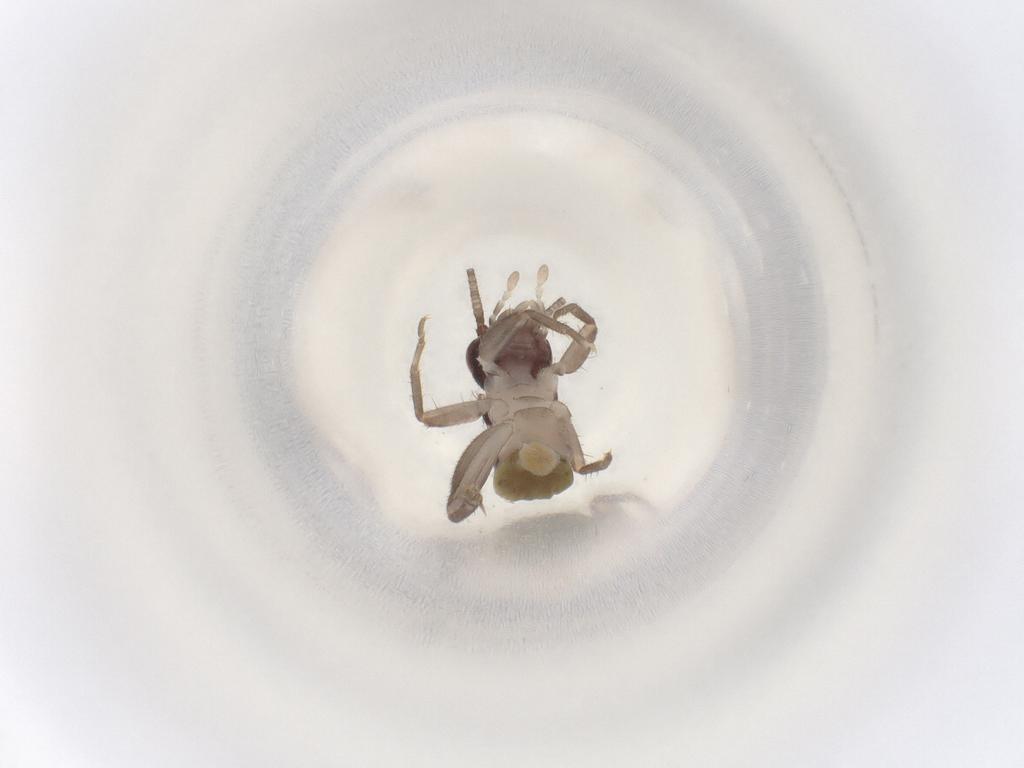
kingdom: Animalia
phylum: Arthropoda
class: Insecta
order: Orthoptera
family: Gryllidae
